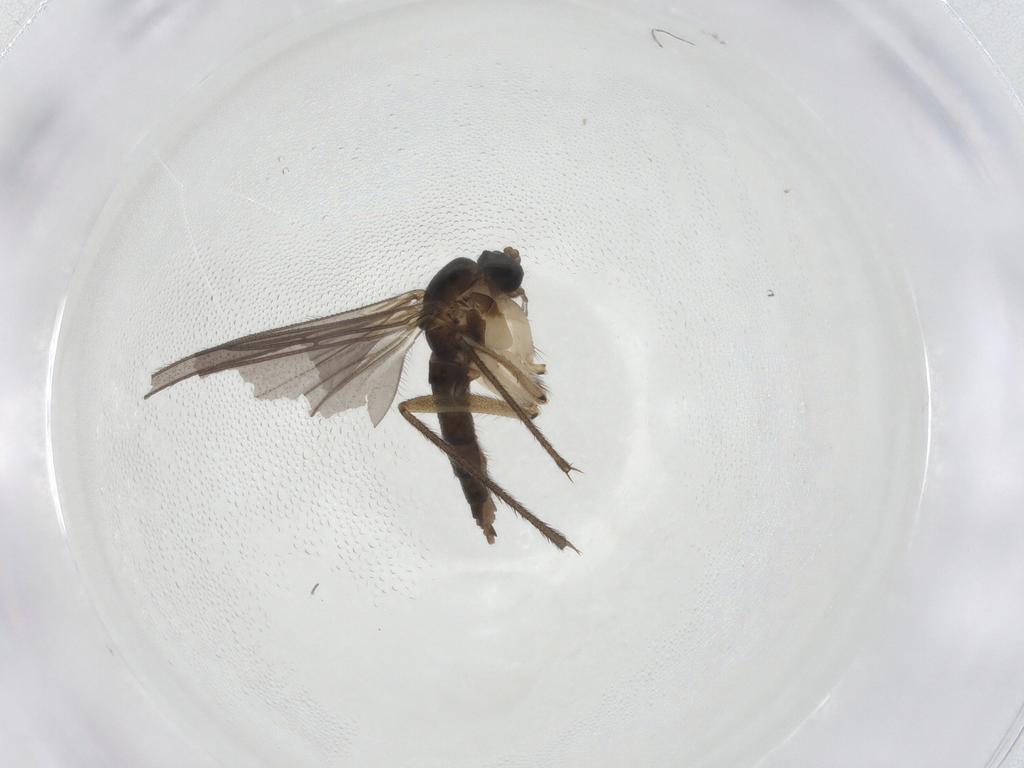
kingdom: Animalia
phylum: Arthropoda
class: Insecta
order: Diptera
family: Sciaridae
